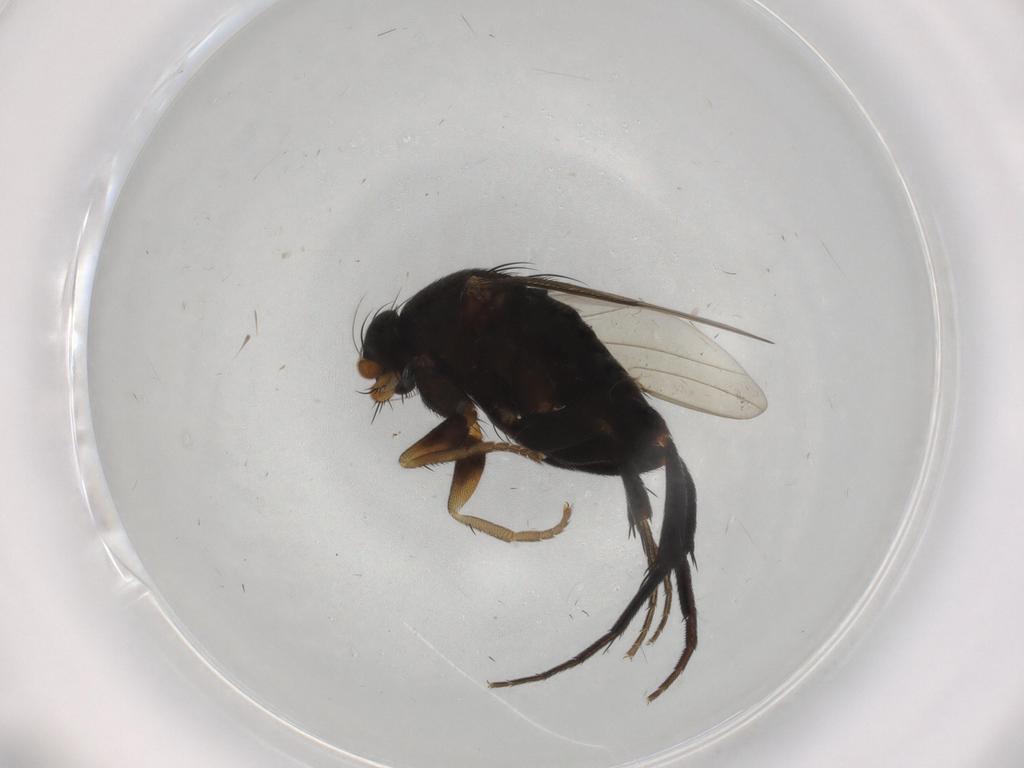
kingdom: Animalia
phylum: Arthropoda
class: Insecta
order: Diptera
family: Phoridae
